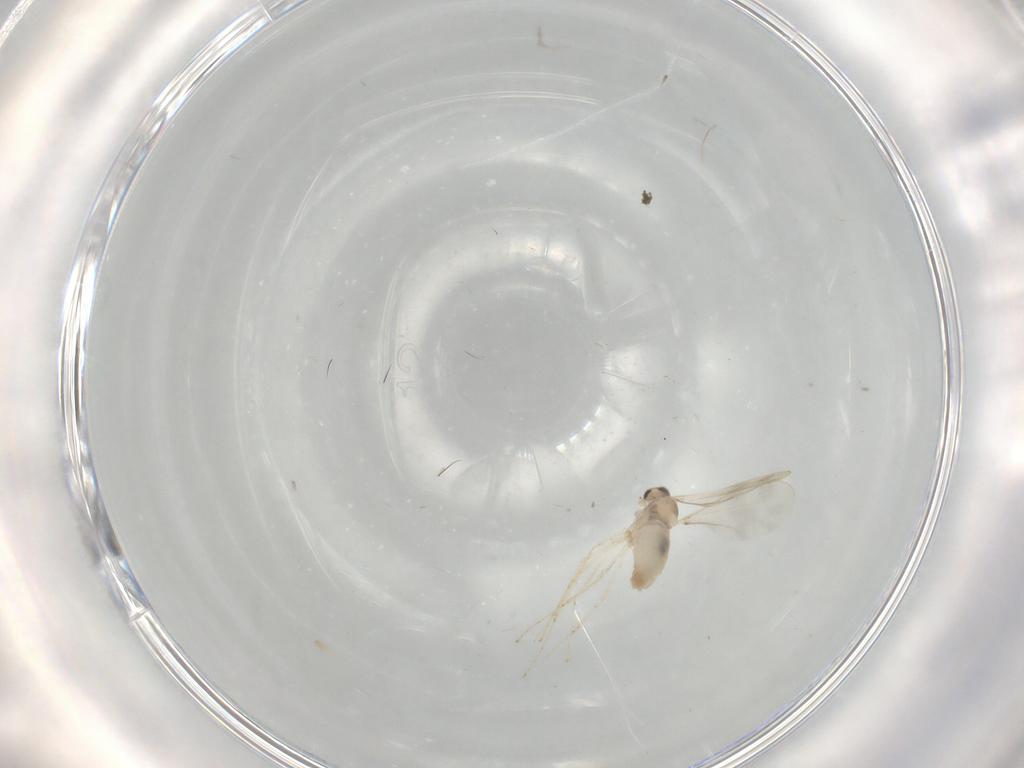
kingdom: Animalia
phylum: Arthropoda
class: Insecta
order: Diptera
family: Cecidomyiidae
